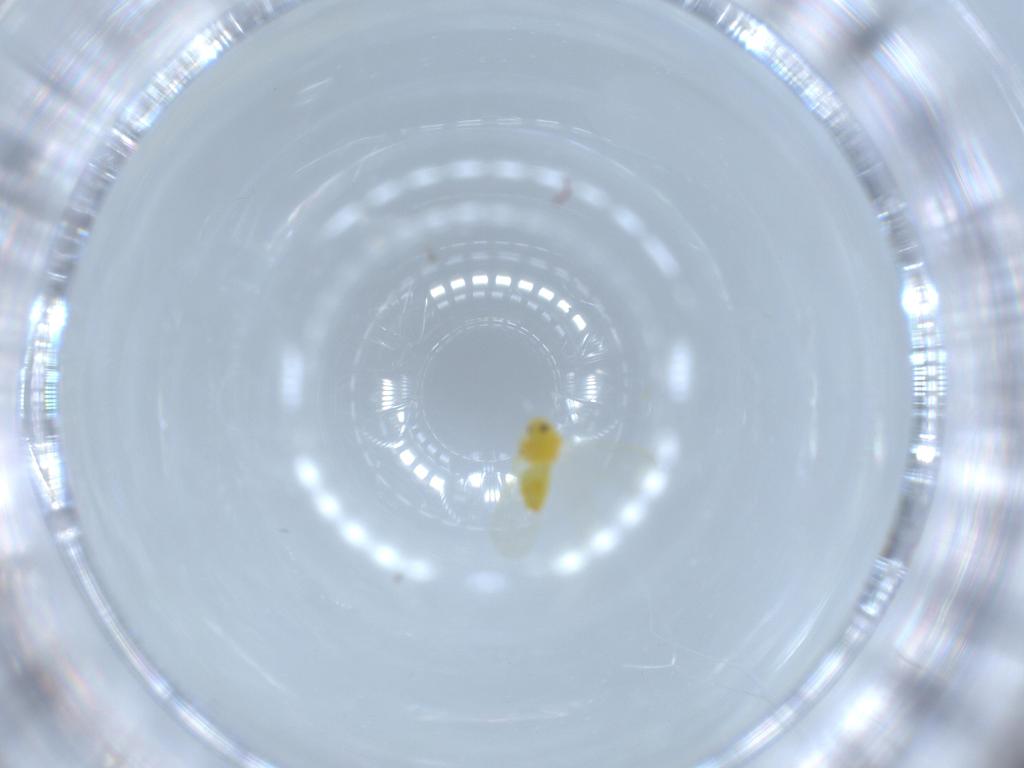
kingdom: Animalia
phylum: Arthropoda
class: Insecta
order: Hemiptera
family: Aleyrodidae
